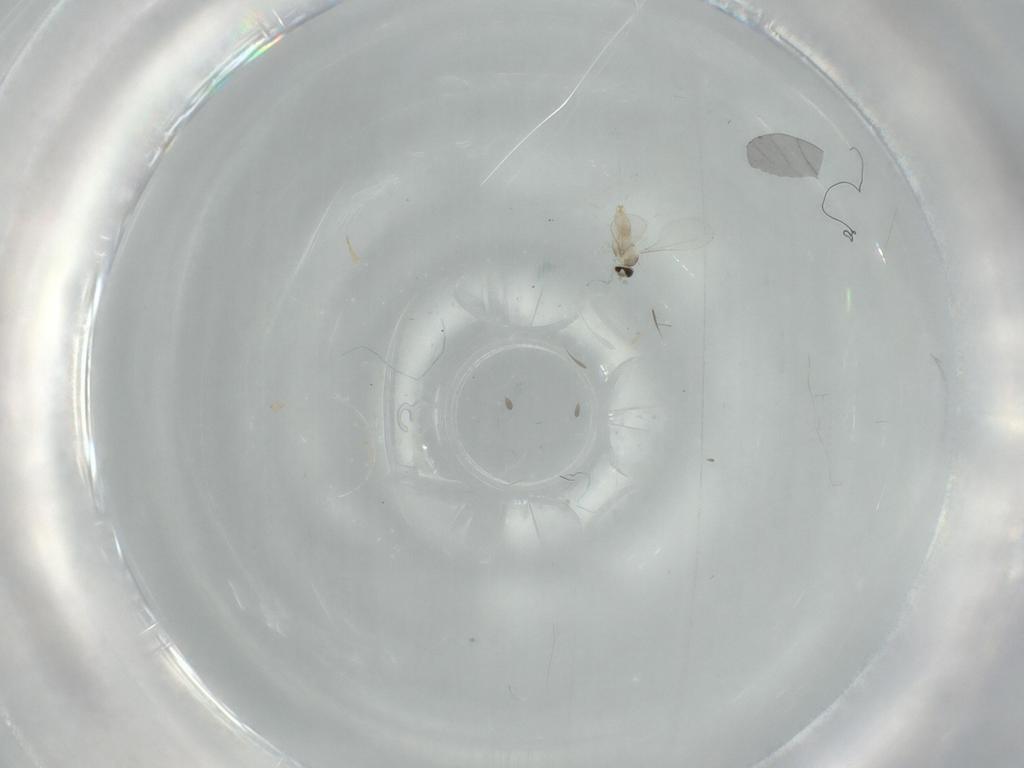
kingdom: Animalia
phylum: Arthropoda
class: Insecta
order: Diptera
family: Cecidomyiidae
